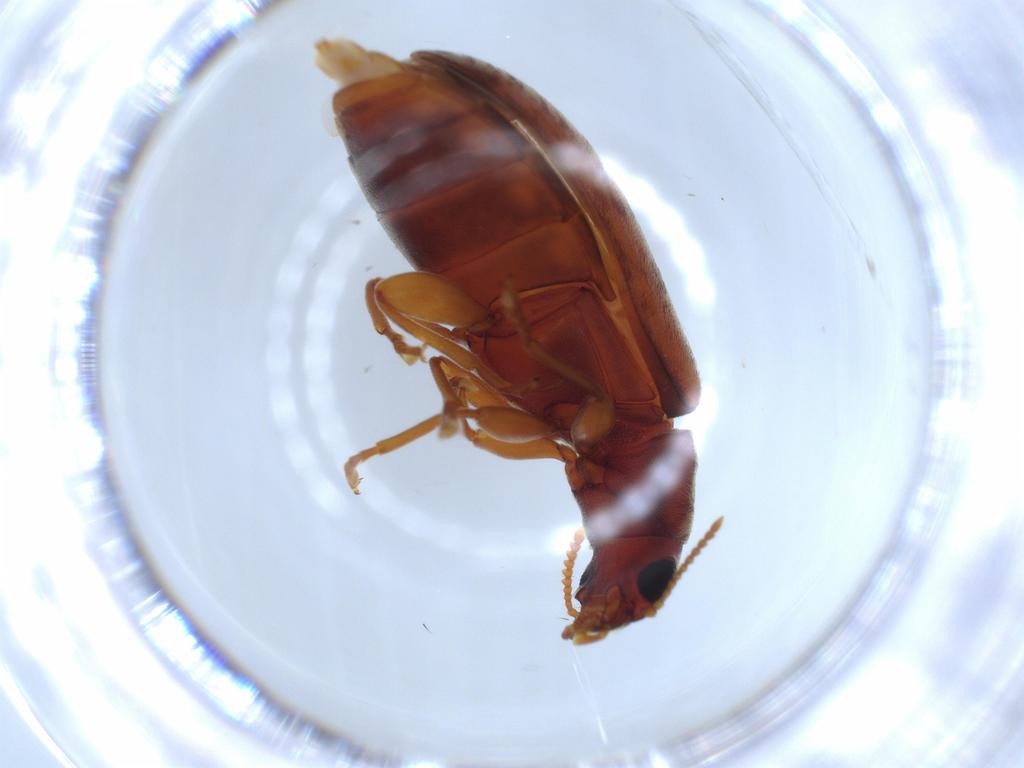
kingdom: Animalia
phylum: Arthropoda
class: Insecta
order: Coleoptera
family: Mycteridae
